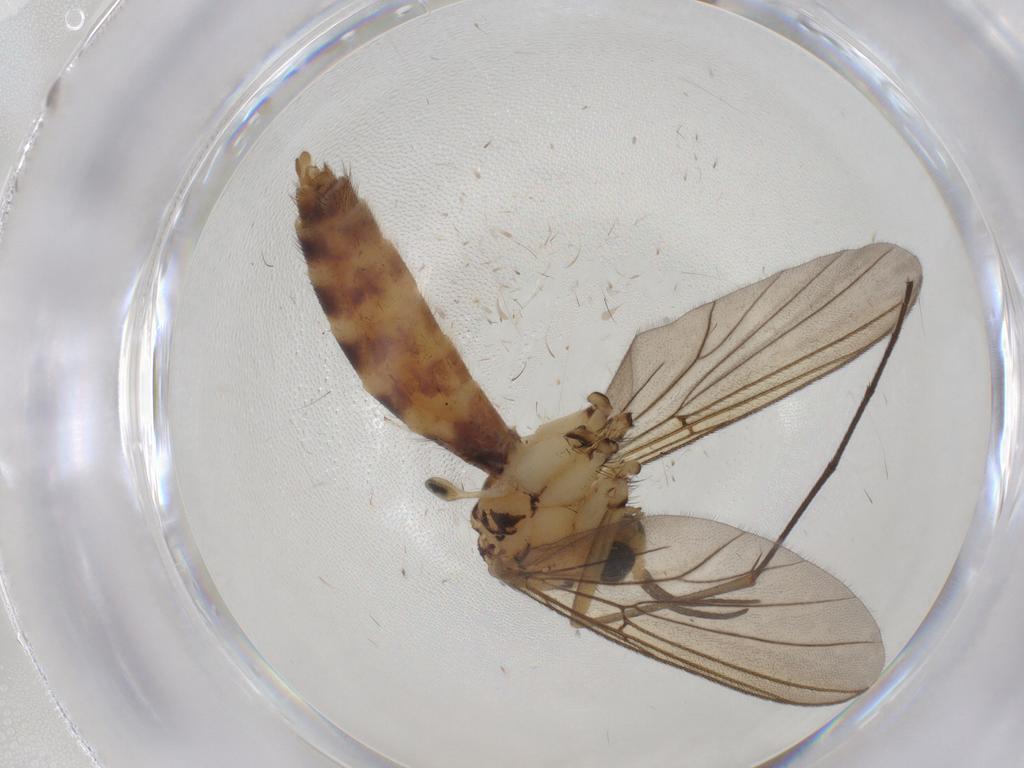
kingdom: Animalia
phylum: Arthropoda
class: Insecta
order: Diptera
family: Mycetophilidae
